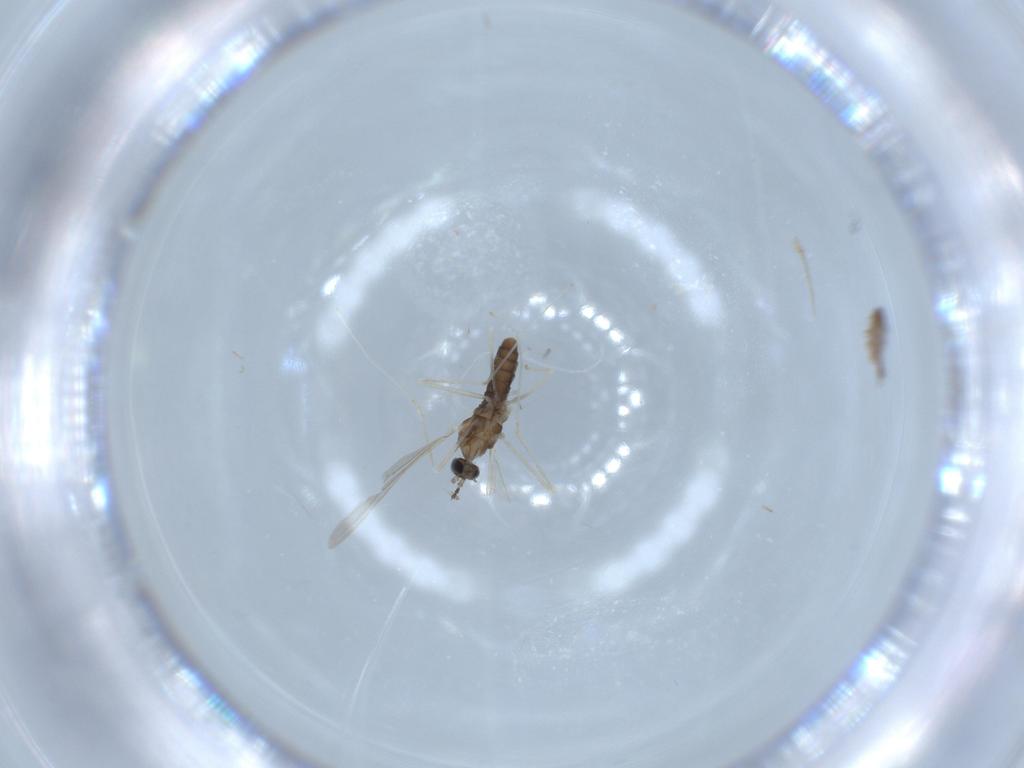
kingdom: Animalia
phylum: Arthropoda
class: Insecta
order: Diptera
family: Cecidomyiidae
